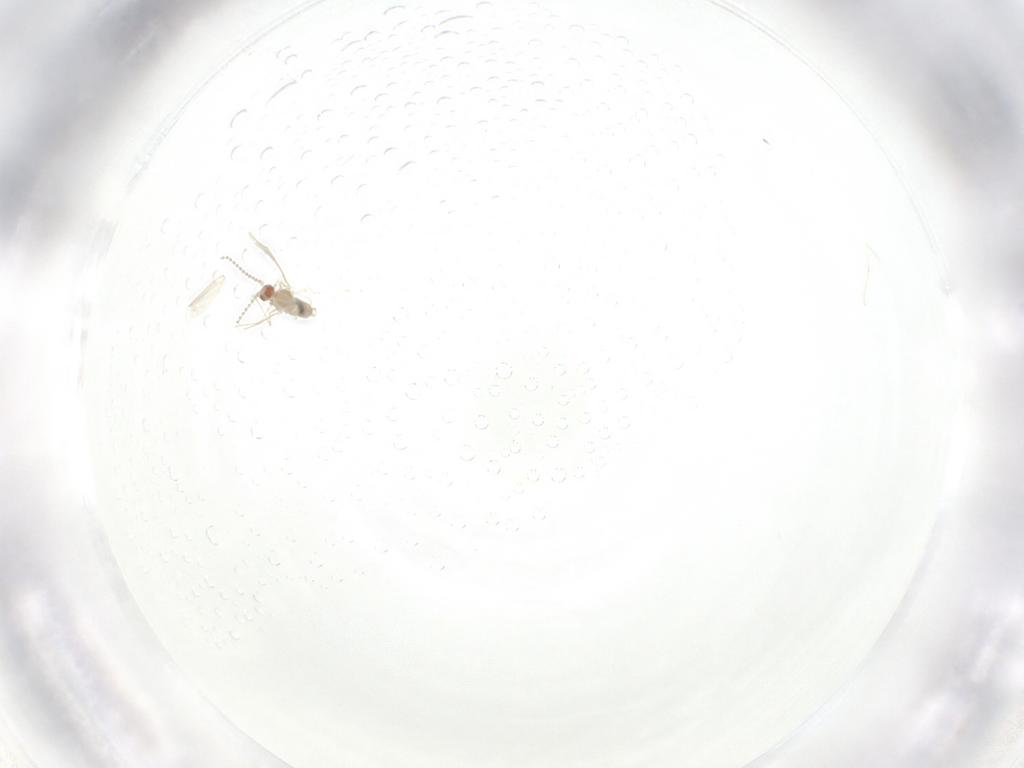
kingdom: Animalia
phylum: Arthropoda
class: Insecta
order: Diptera
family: Cecidomyiidae
